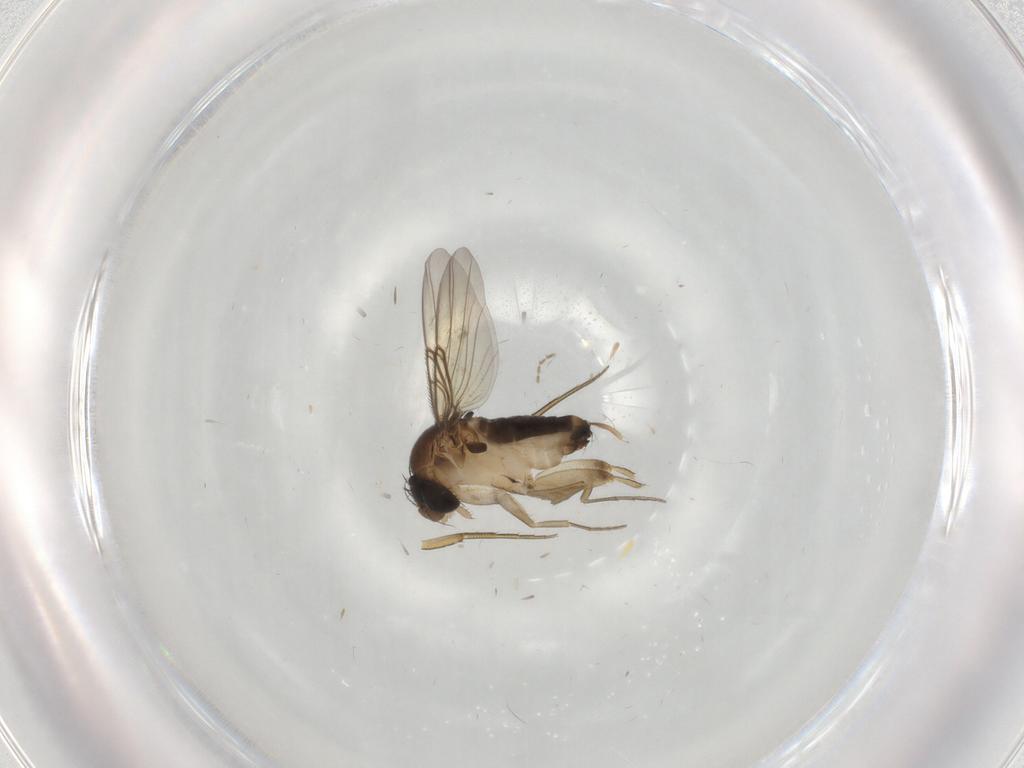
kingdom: Animalia
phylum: Arthropoda
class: Insecta
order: Diptera
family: Phoridae
